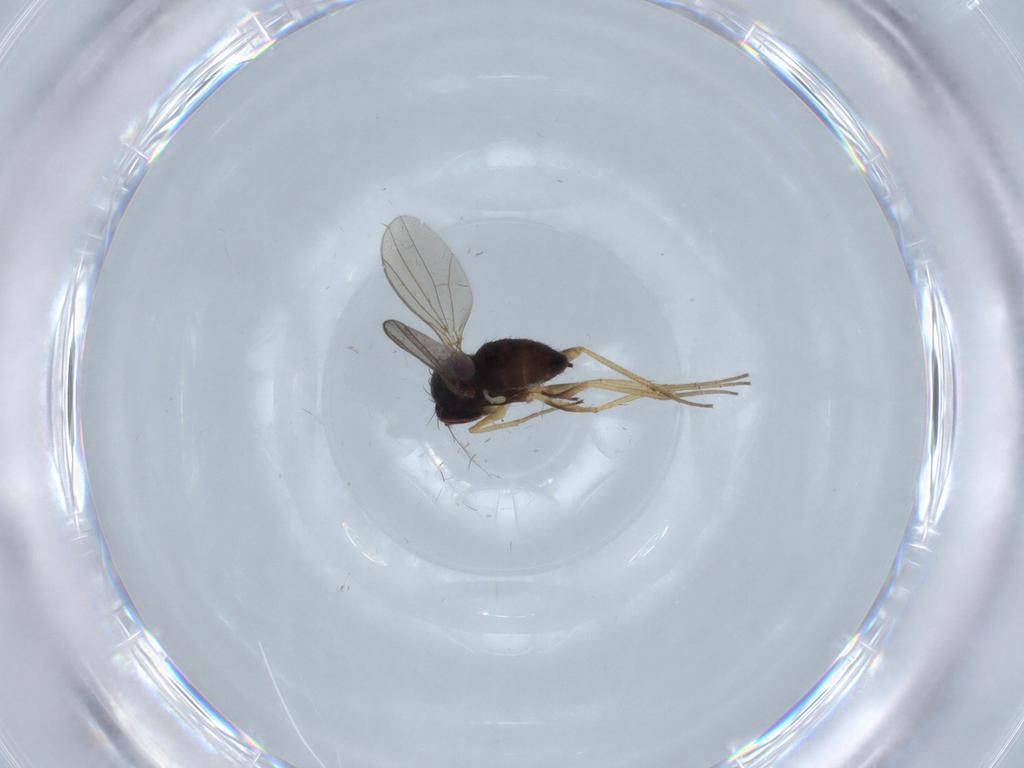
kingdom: Animalia
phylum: Arthropoda
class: Insecta
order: Diptera
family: Dolichopodidae
